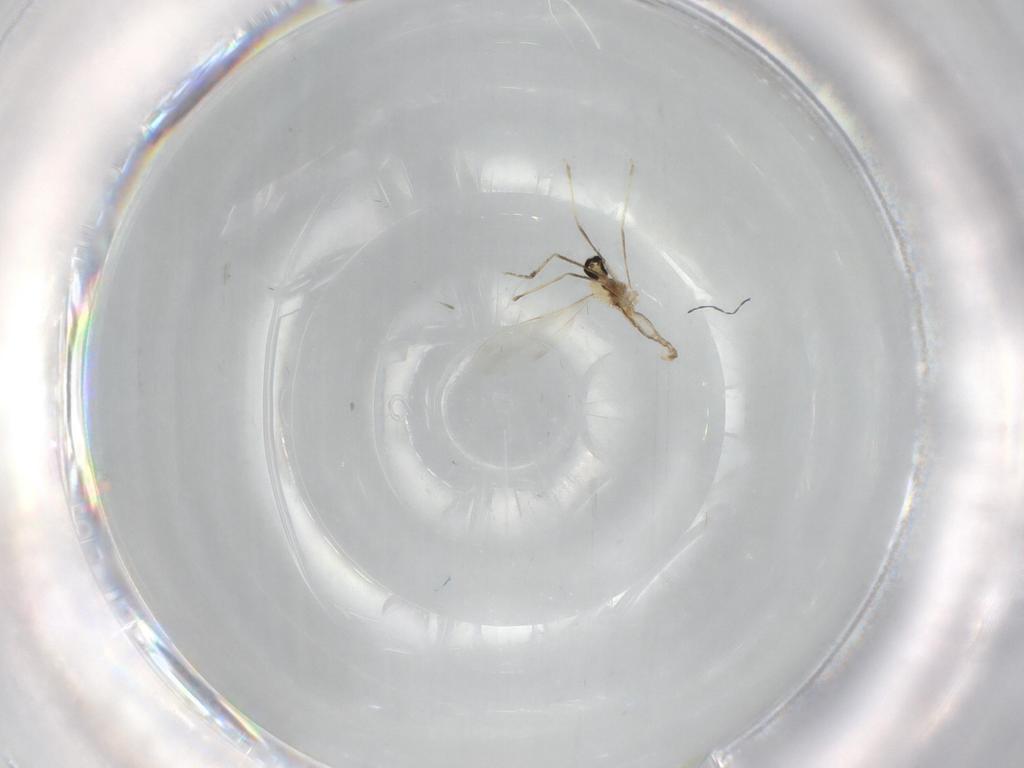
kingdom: Animalia
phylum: Arthropoda
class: Insecta
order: Diptera
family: Cecidomyiidae
